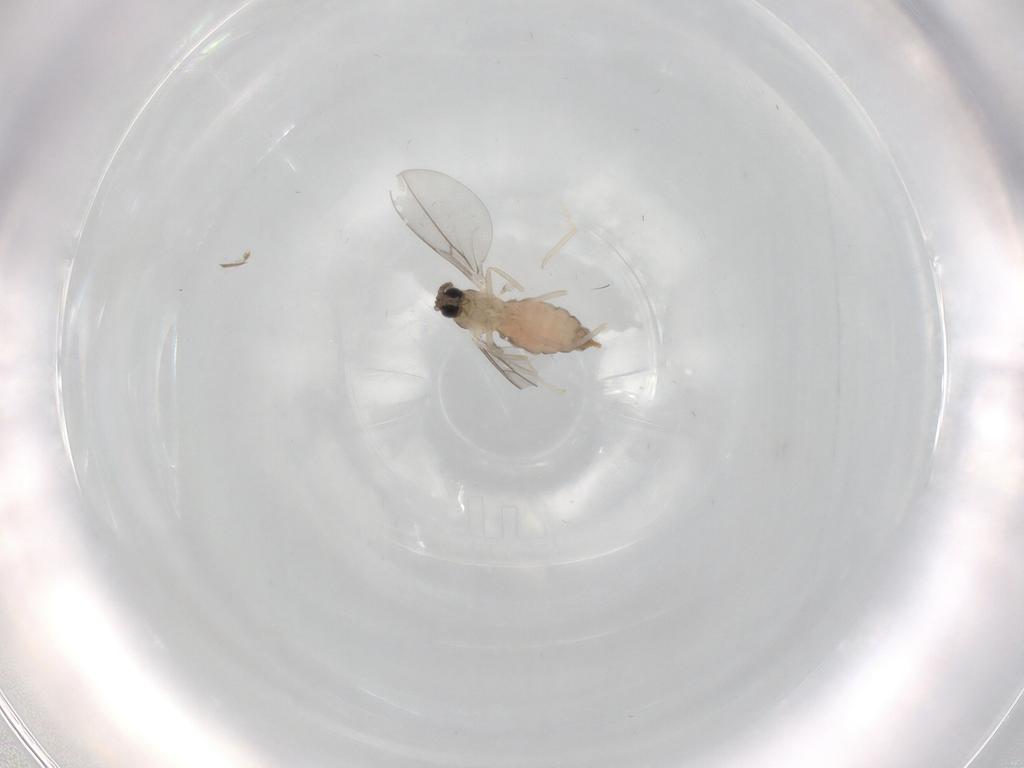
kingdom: Animalia
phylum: Arthropoda
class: Insecta
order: Diptera
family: Cecidomyiidae
